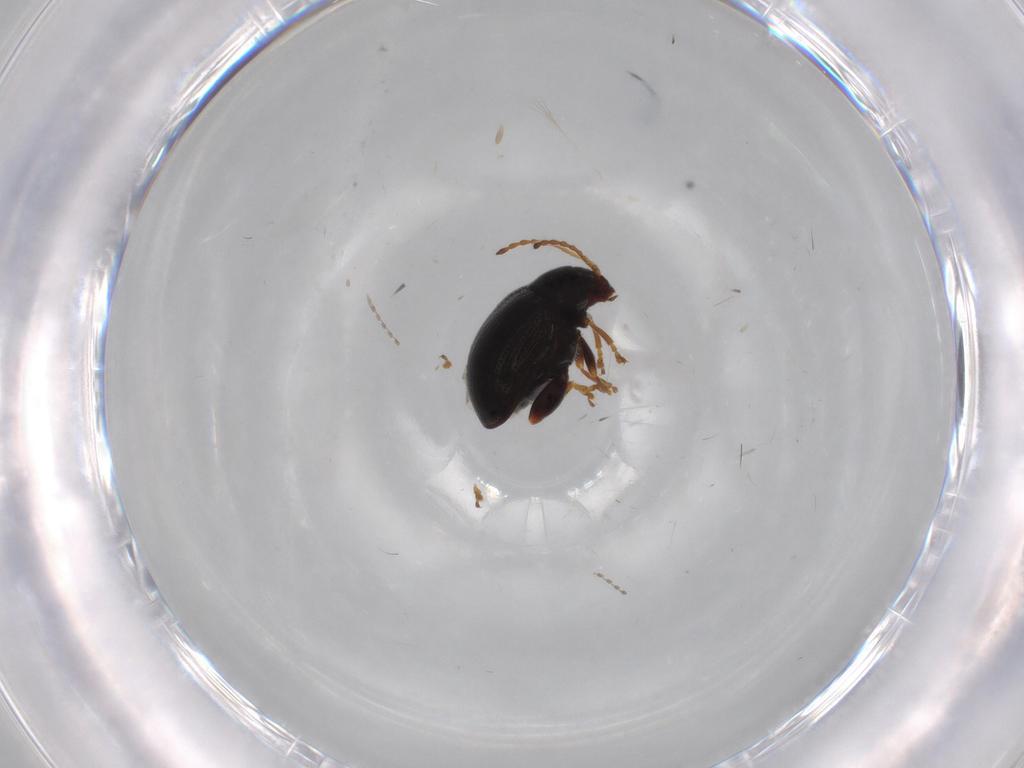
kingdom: Animalia
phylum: Arthropoda
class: Insecta
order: Coleoptera
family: Chrysomelidae
